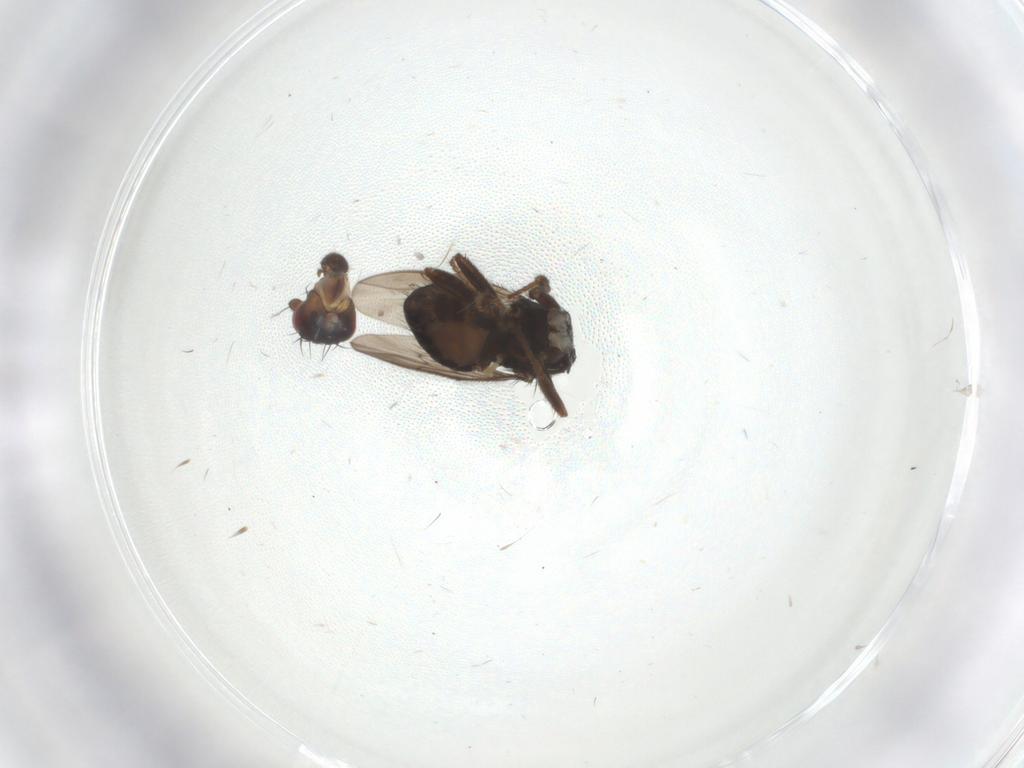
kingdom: Animalia
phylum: Arthropoda
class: Insecta
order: Diptera
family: Sphaeroceridae
